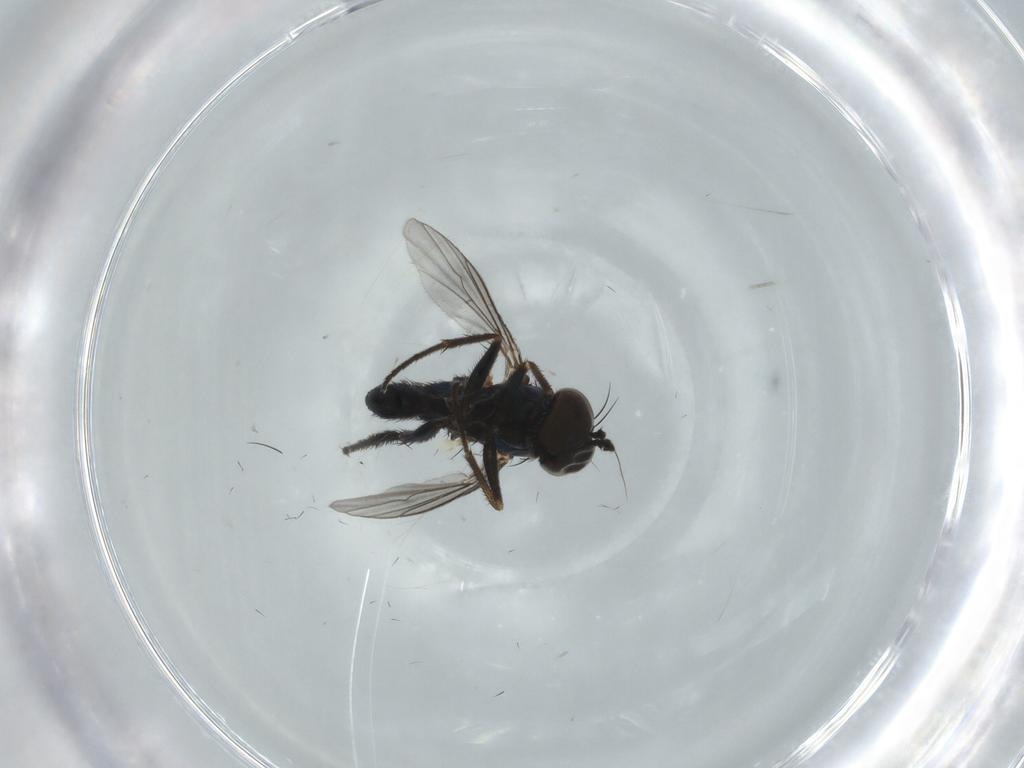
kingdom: Animalia
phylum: Arthropoda
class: Insecta
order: Diptera
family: Dolichopodidae
